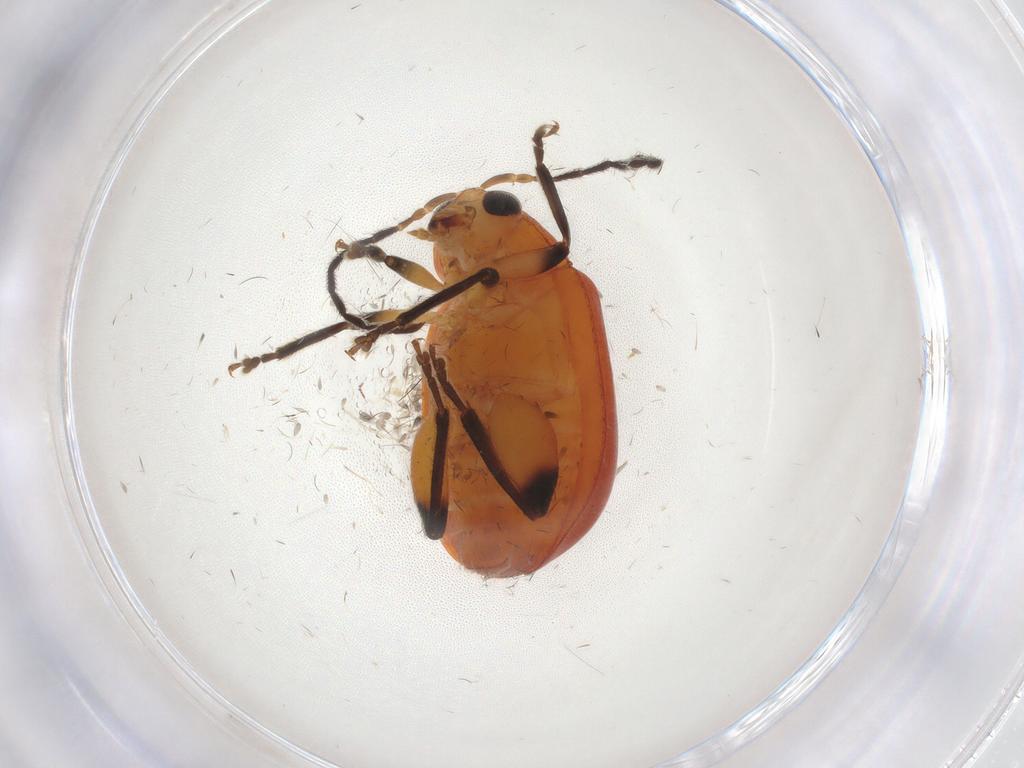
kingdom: Animalia
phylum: Arthropoda
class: Insecta
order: Coleoptera
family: Chrysomelidae
